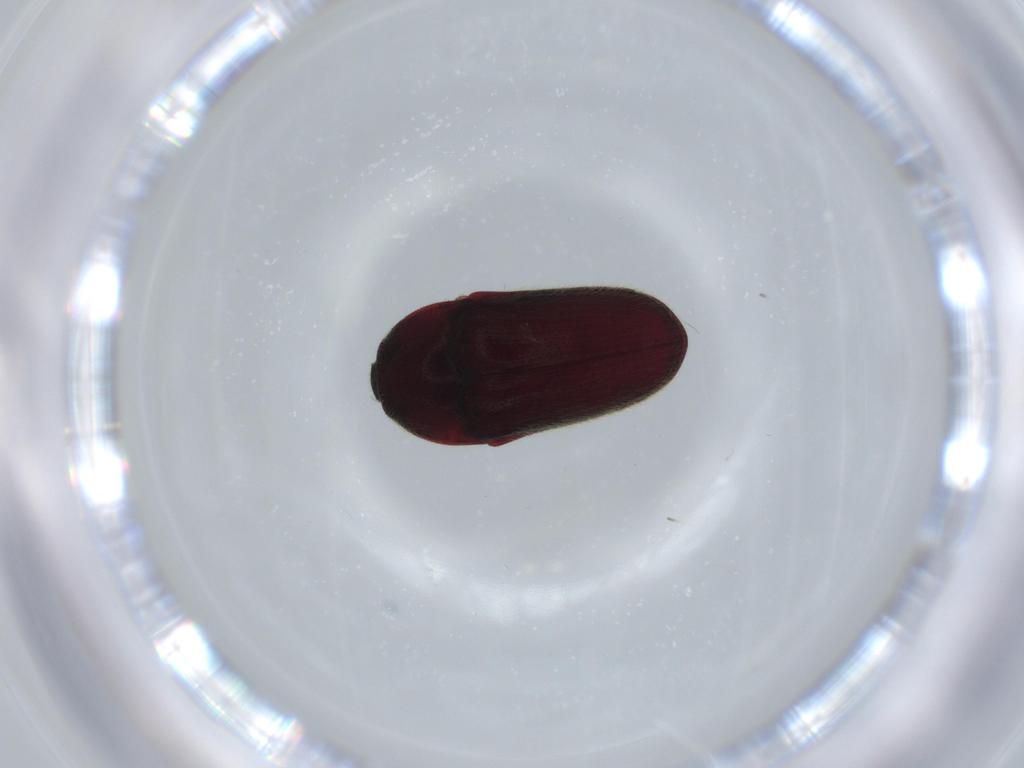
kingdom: Animalia
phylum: Arthropoda
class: Insecta
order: Coleoptera
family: Throscidae
